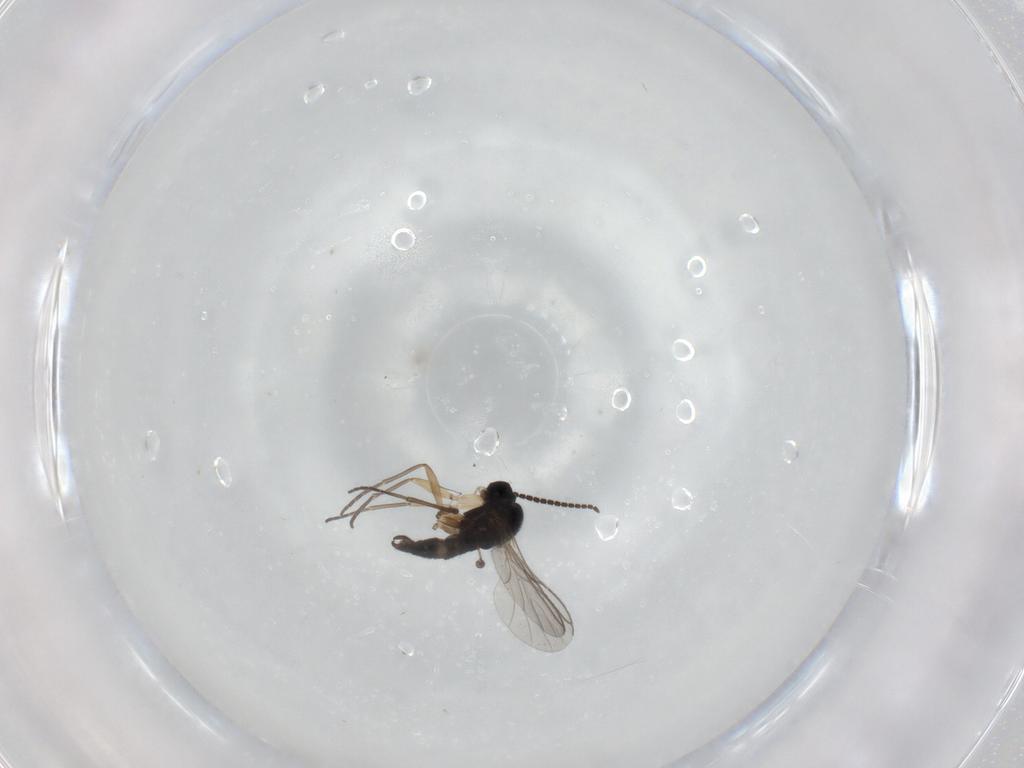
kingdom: Animalia
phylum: Arthropoda
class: Insecta
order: Diptera
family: Sciaridae
